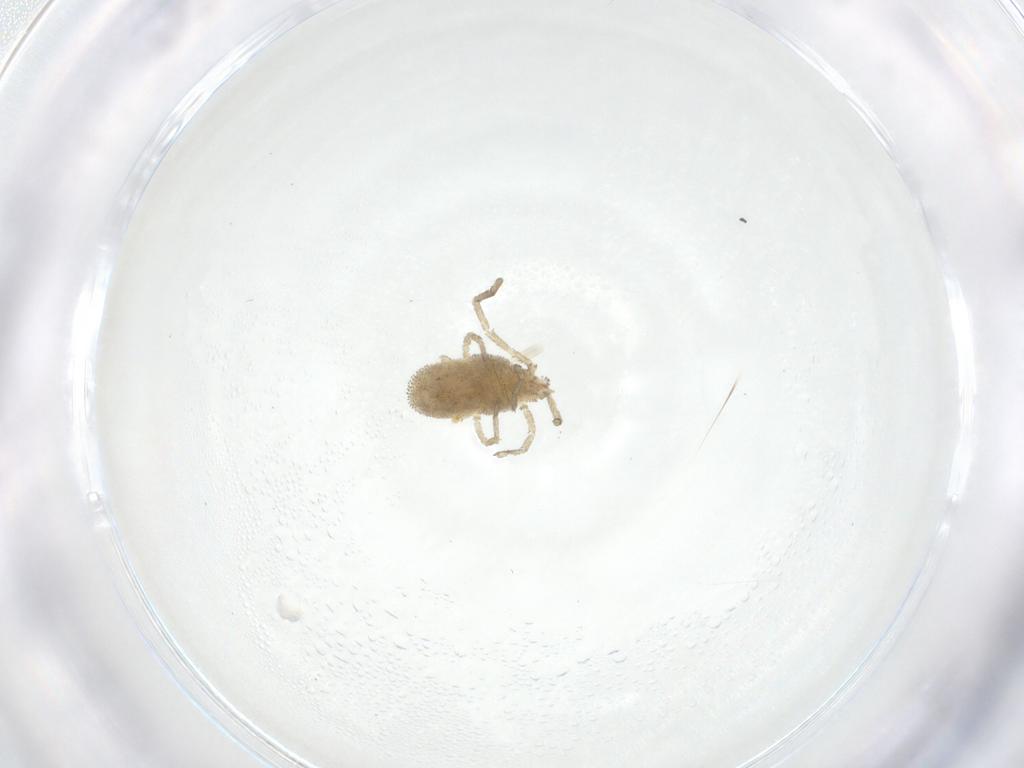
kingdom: Animalia
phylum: Arthropoda
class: Arachnida
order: Trombidiformes
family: Smarididae
